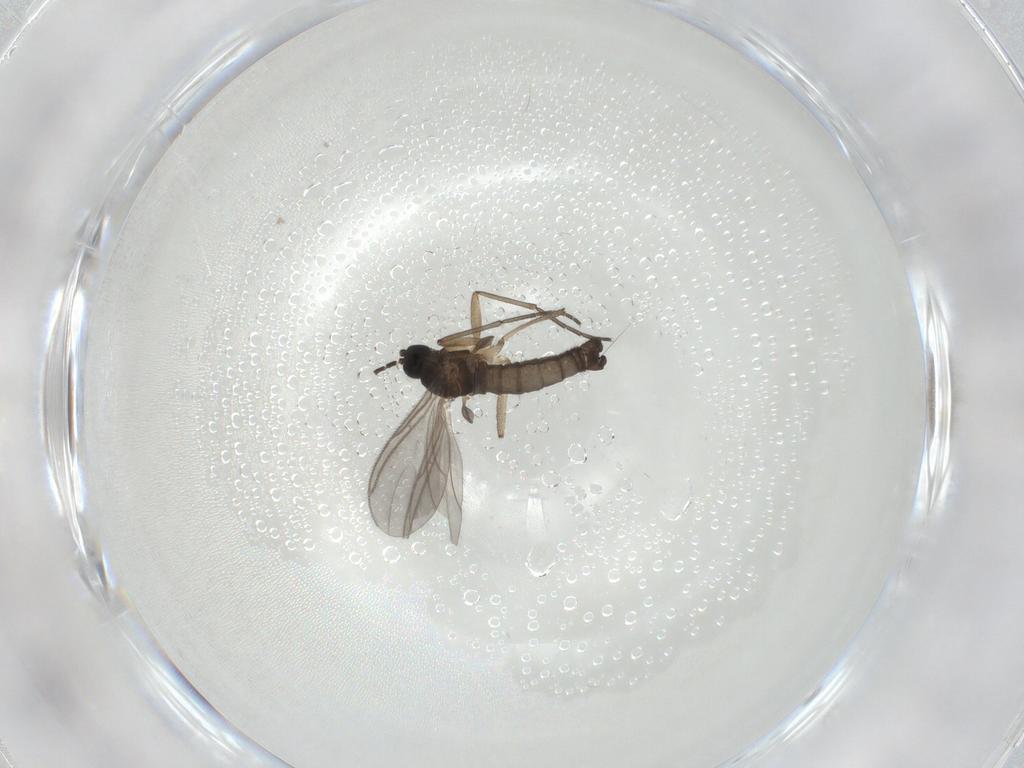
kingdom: Animalia
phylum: Arthropoda
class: Insecta
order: Diptera
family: Sciaridae
